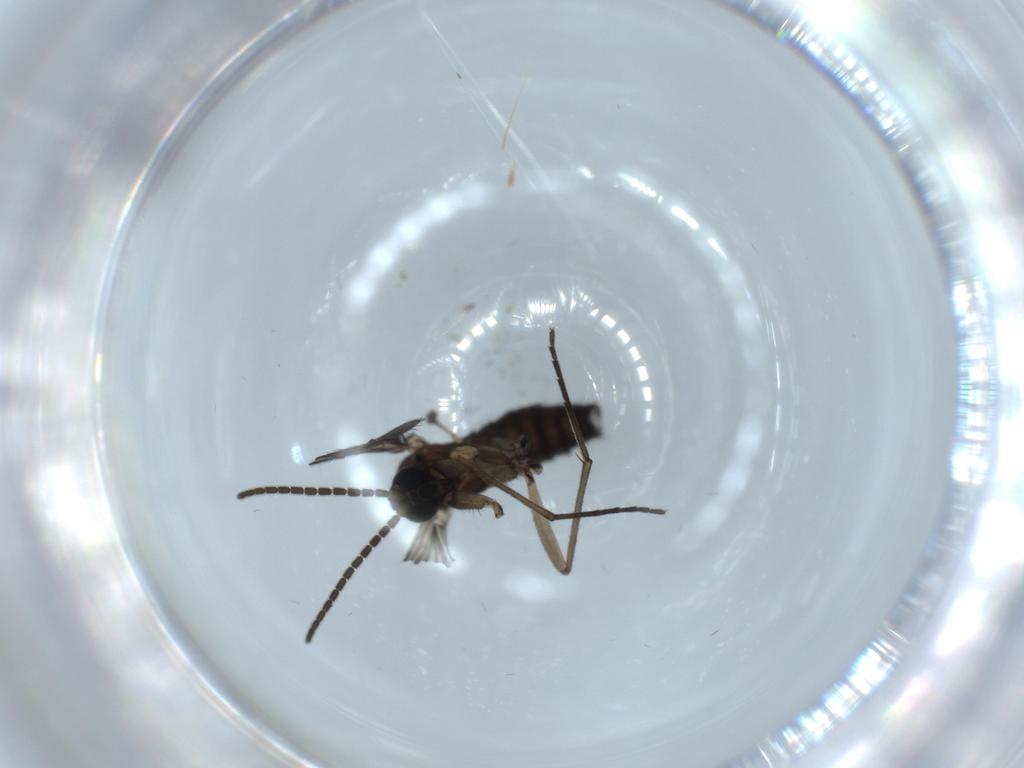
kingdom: Animalia
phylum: Arthropoda
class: Insecta
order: Diptera
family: Sciaridae
